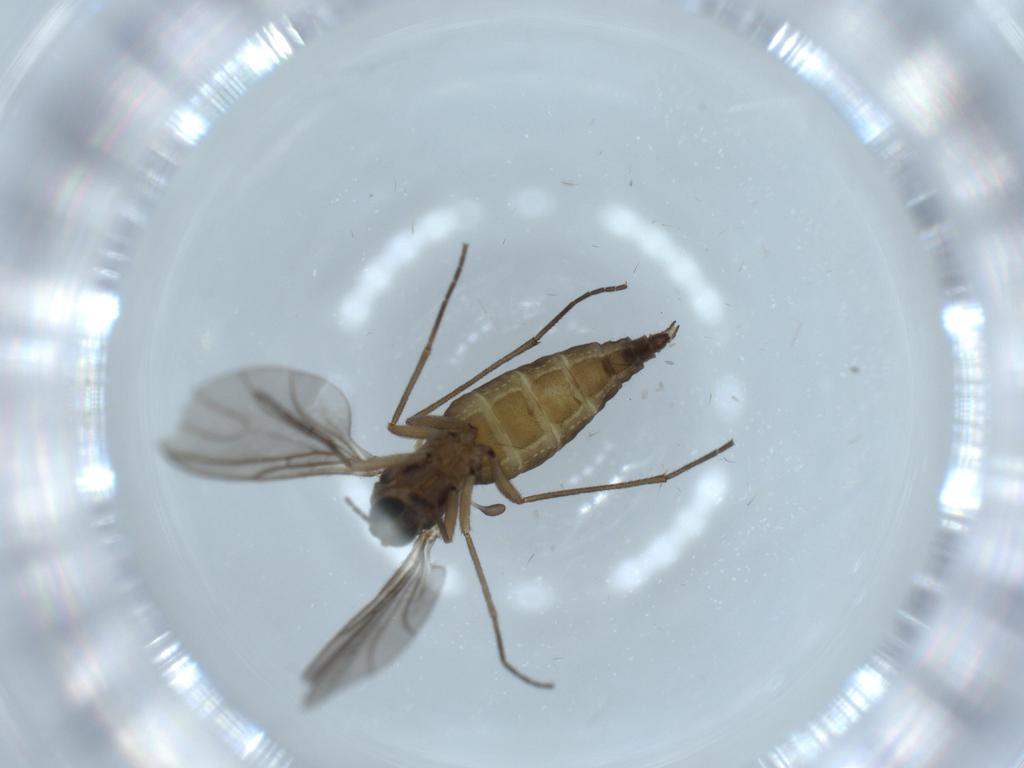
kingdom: Animalia
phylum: Arthropoda
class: Insecta
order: Diptera
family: Sciaridae
